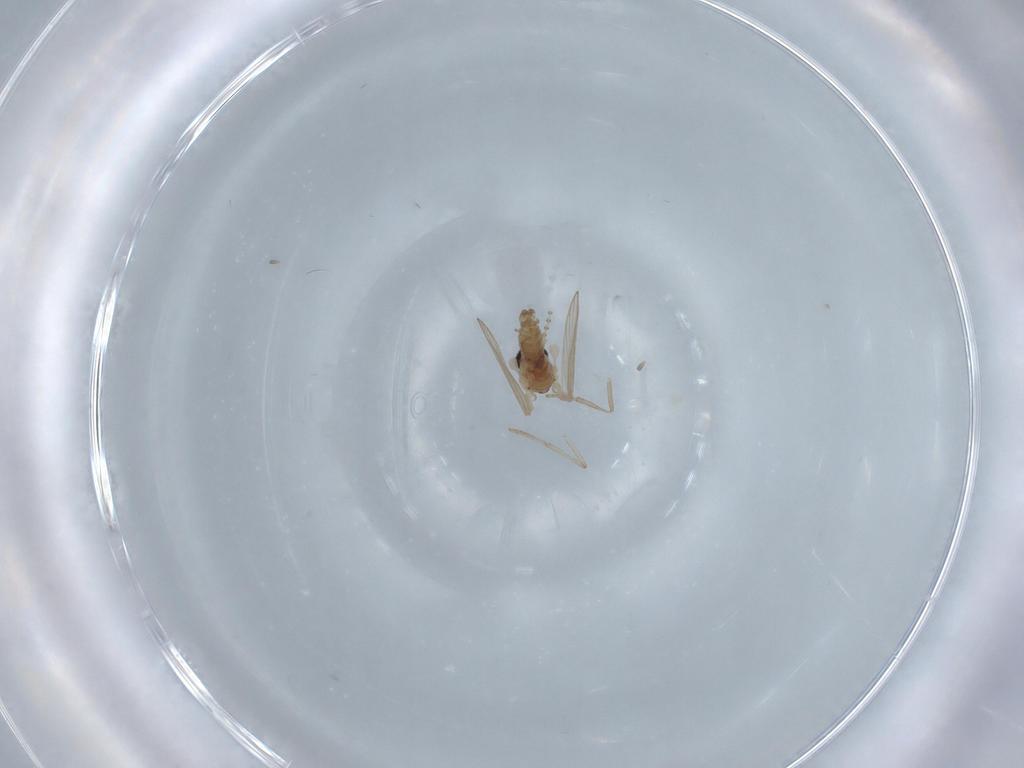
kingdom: Animalia
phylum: Arthropoda
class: Insecta
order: Diptera
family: Psychodidae
